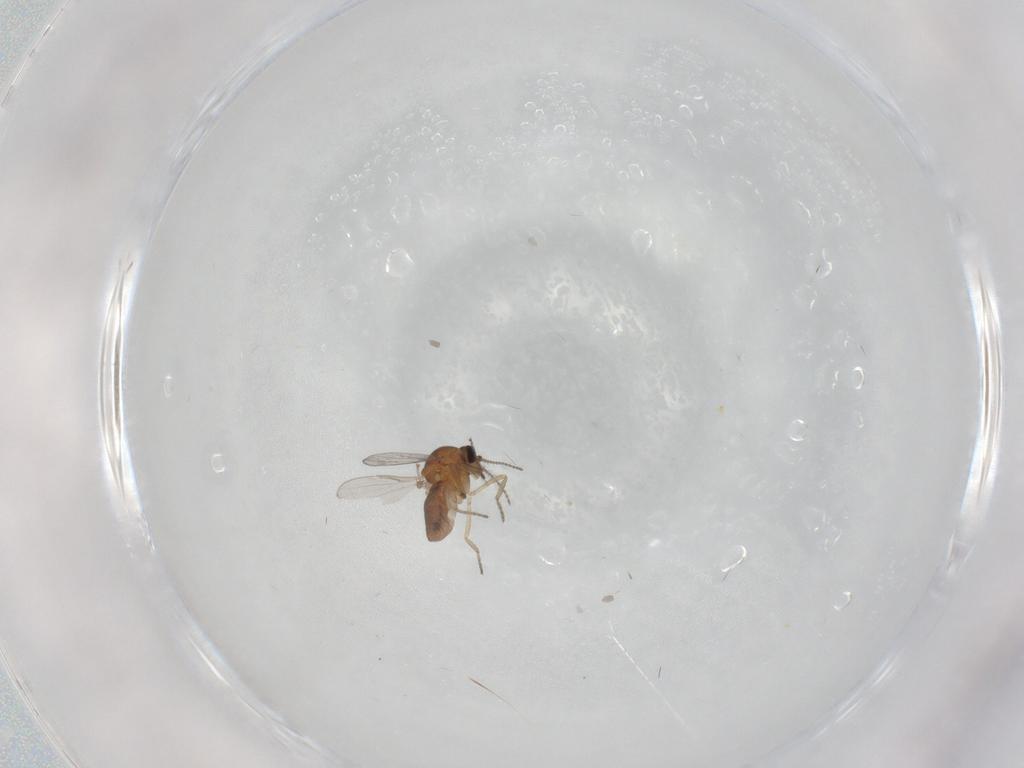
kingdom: Animalia
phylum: Arthropoda
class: Insecta
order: Diptera
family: Ceratopogonidae
